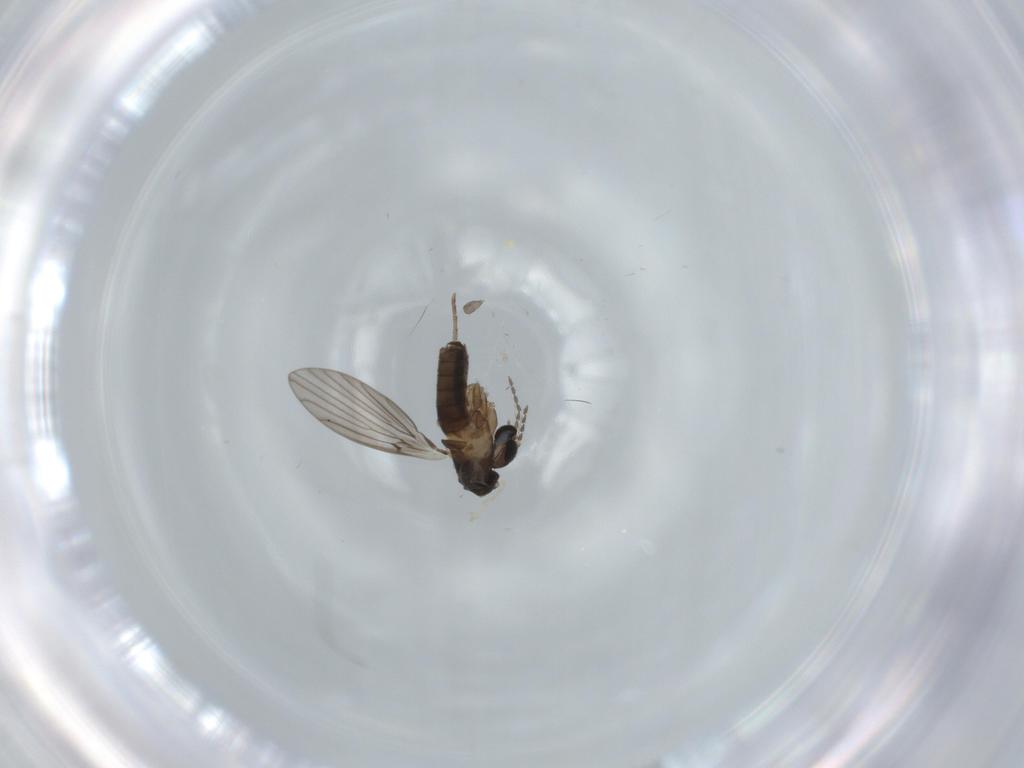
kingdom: Animalia
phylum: Arthropoda
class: Insecta
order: Diptera
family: Psychodidae
